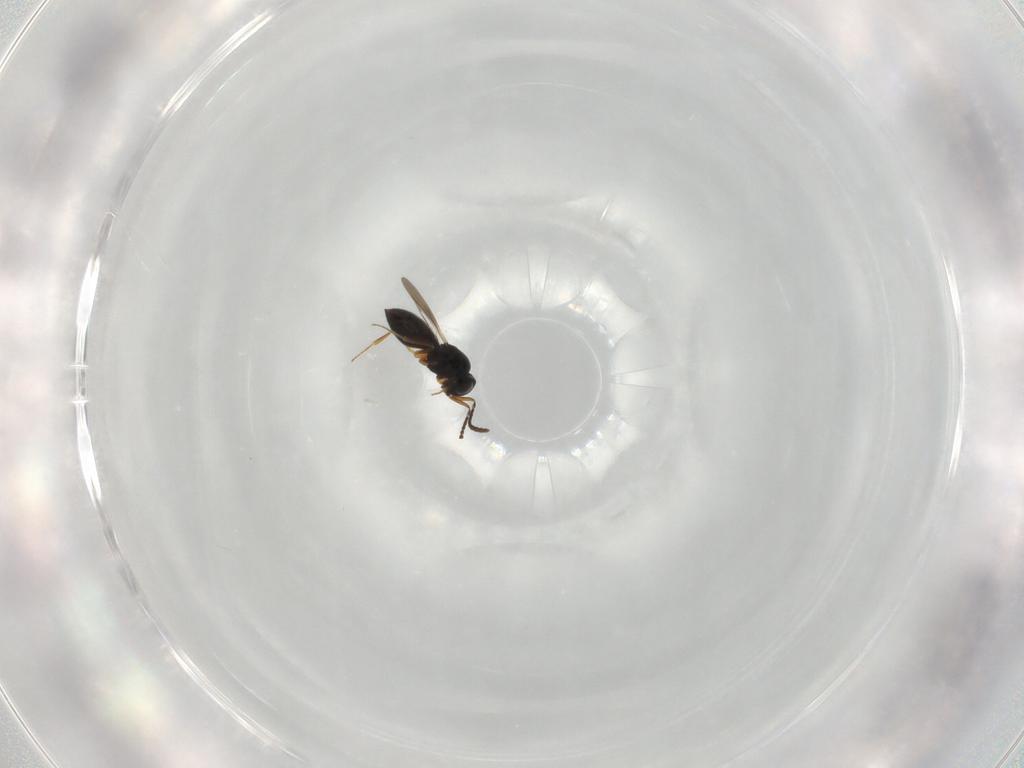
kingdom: Animalia
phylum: Arthropoda
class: Insecta
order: Hymenoptera
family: Scelionidae
